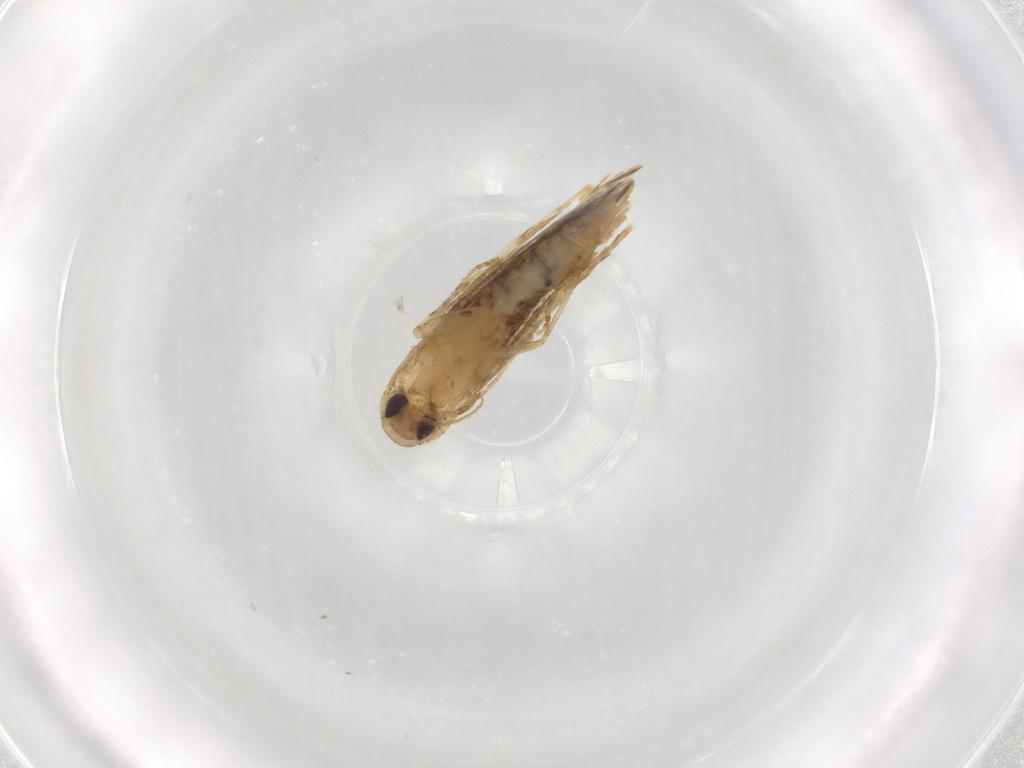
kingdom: Animalia
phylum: Arthropoda
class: Insecta
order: Lepidoptera
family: Crambidae
